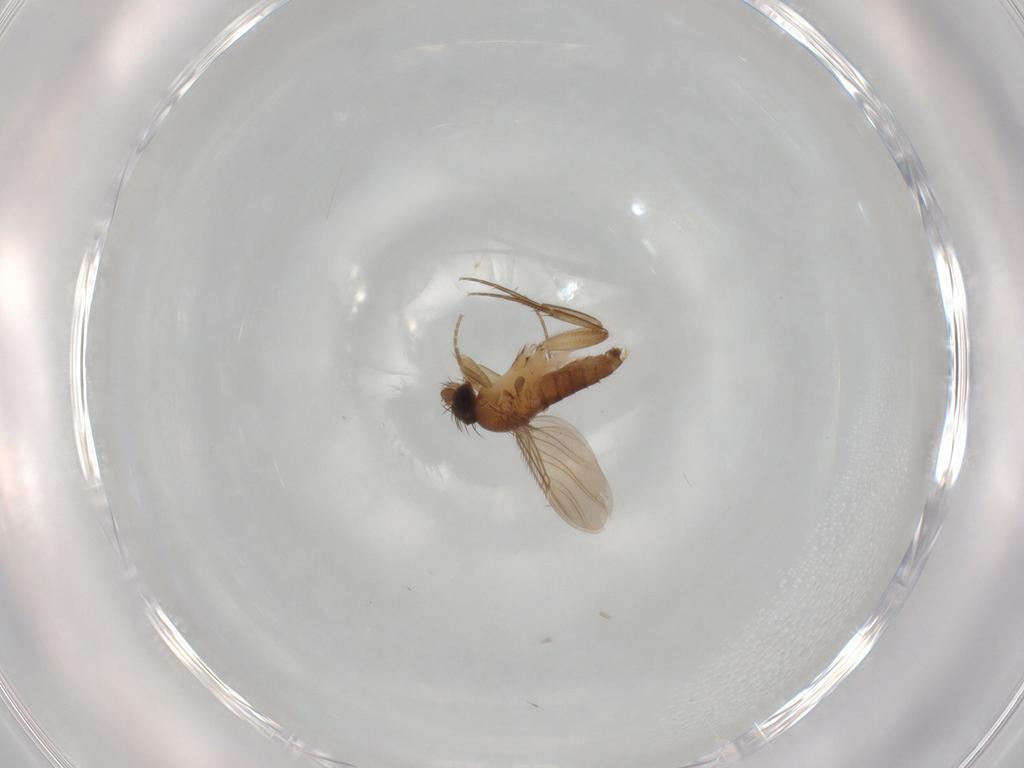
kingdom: Animalia
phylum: Arthropoda
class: Insecta
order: Diptera
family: Phoridae
